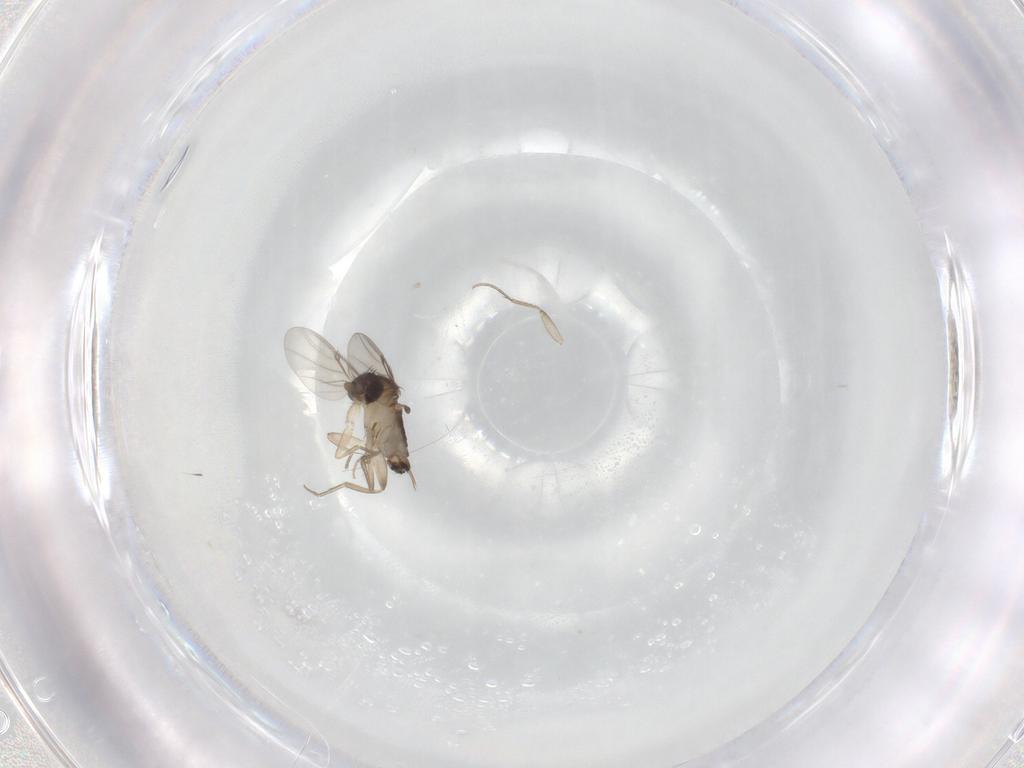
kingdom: Animalia
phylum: Arthropoda
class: Insecta
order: Diptera
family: Phoridae
